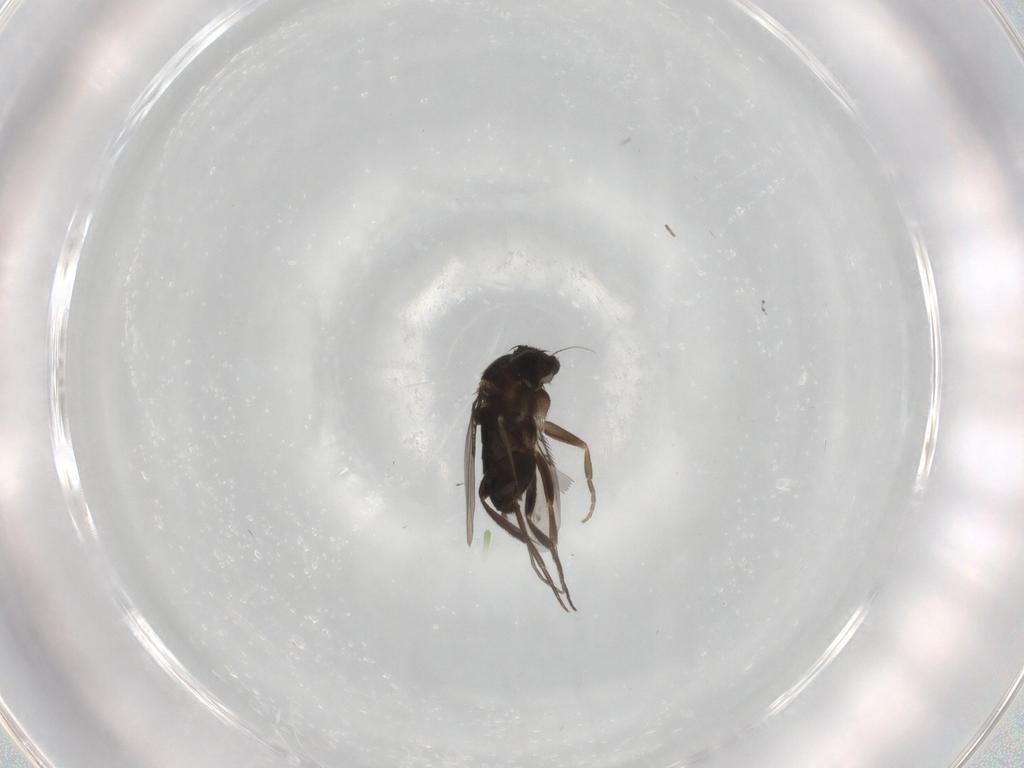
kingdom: Animalia
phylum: Arthropoda
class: Insecta
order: Diptera
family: Phoridae
